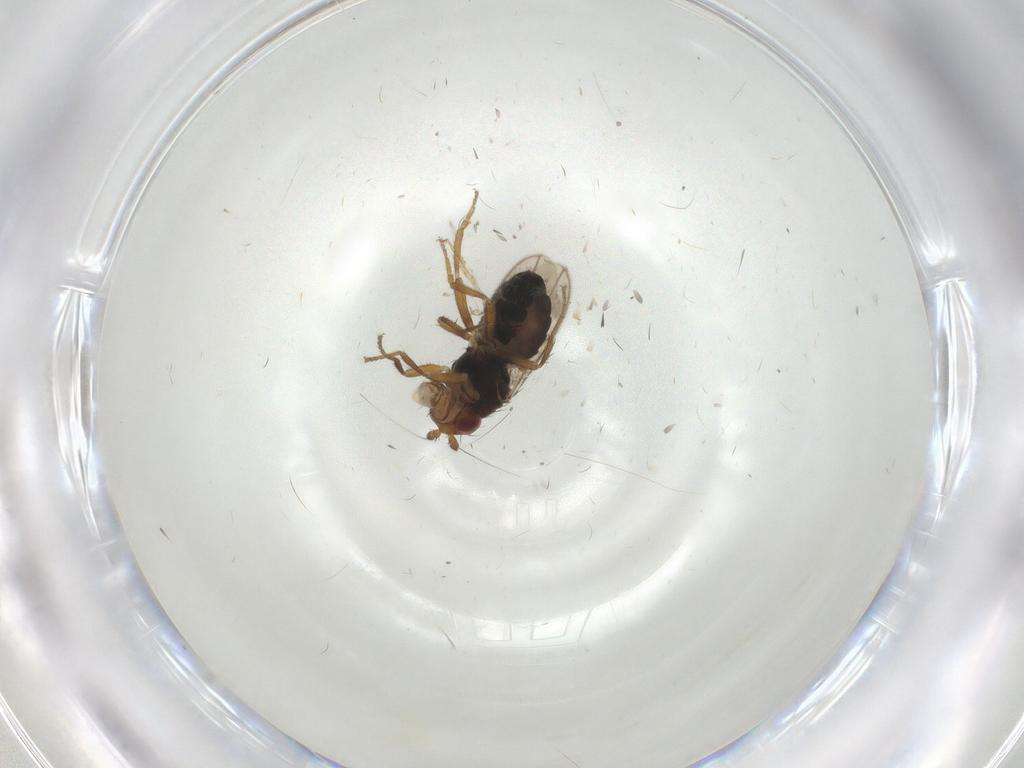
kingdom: Animalia
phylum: Arthropoda
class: Insecta
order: Diptera
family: Sphaeroceridae
